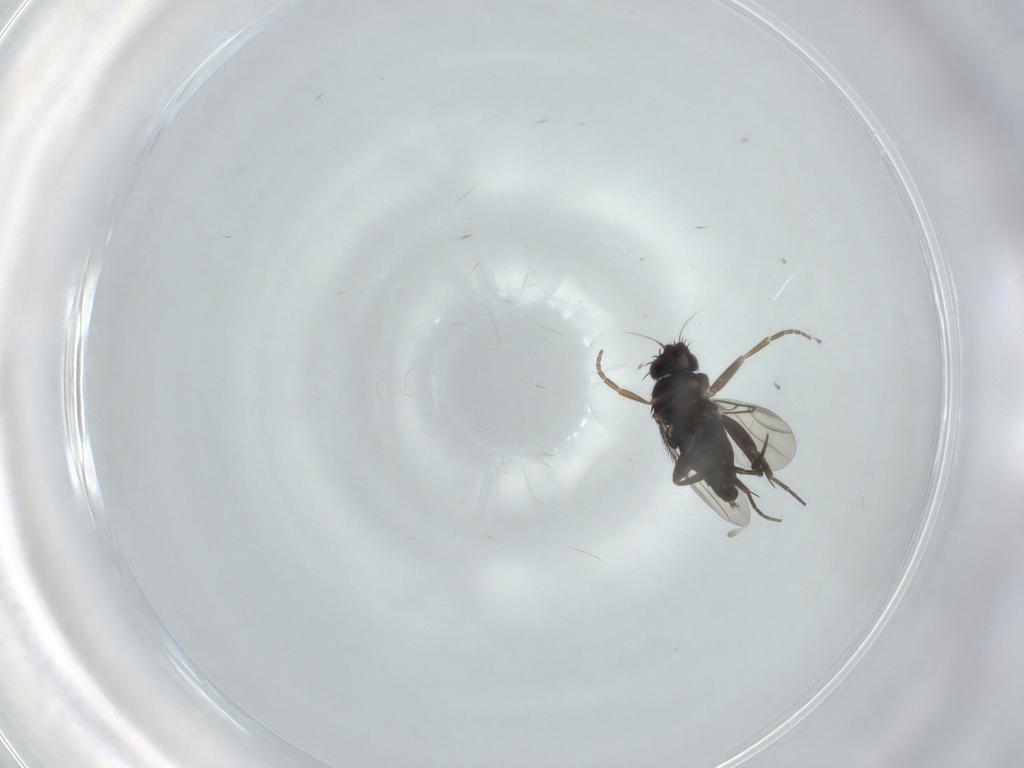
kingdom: Animalia
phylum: Arthropoda
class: Insecta
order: Diptera
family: Phoridae
